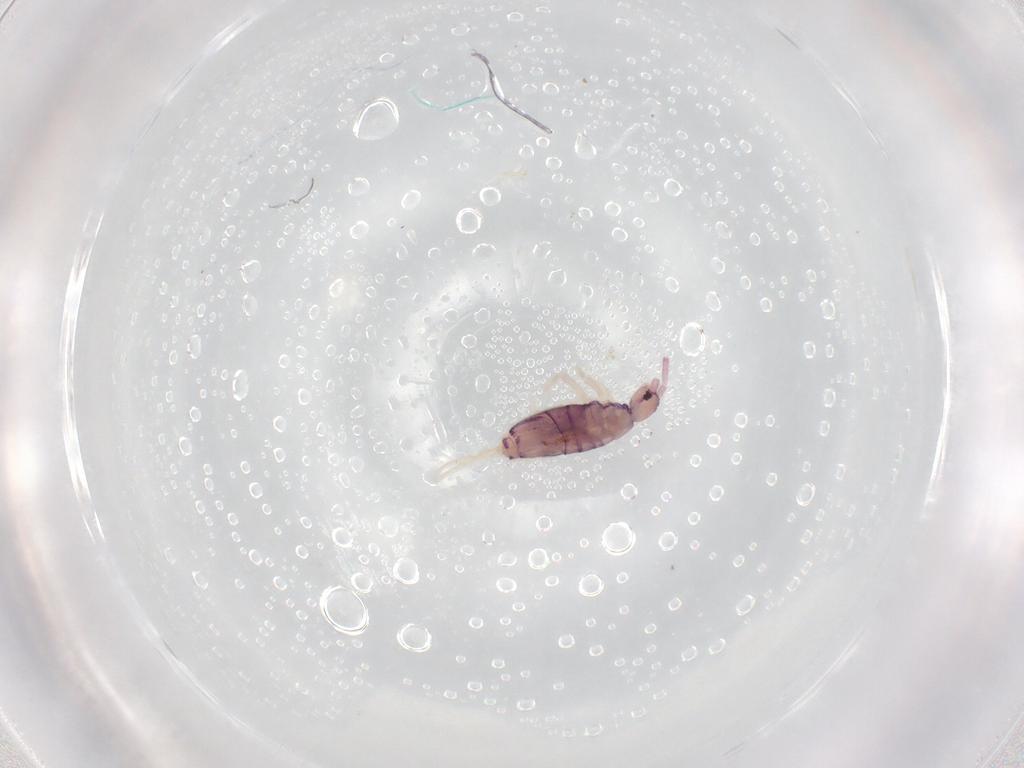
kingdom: Animalia
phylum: Arthropoda
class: Collembola
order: Entomobryomorpha
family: Entomobryidae
